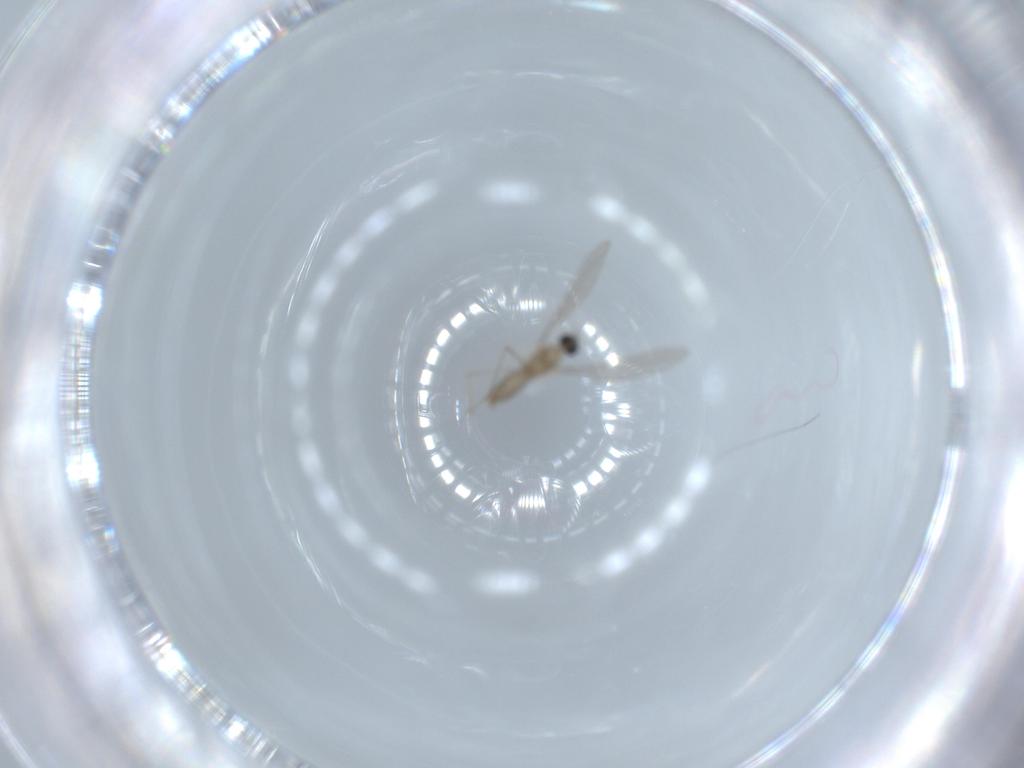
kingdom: Animalia
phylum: Arthropoda
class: Insecta
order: Diptera
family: Cecidomyiidae
